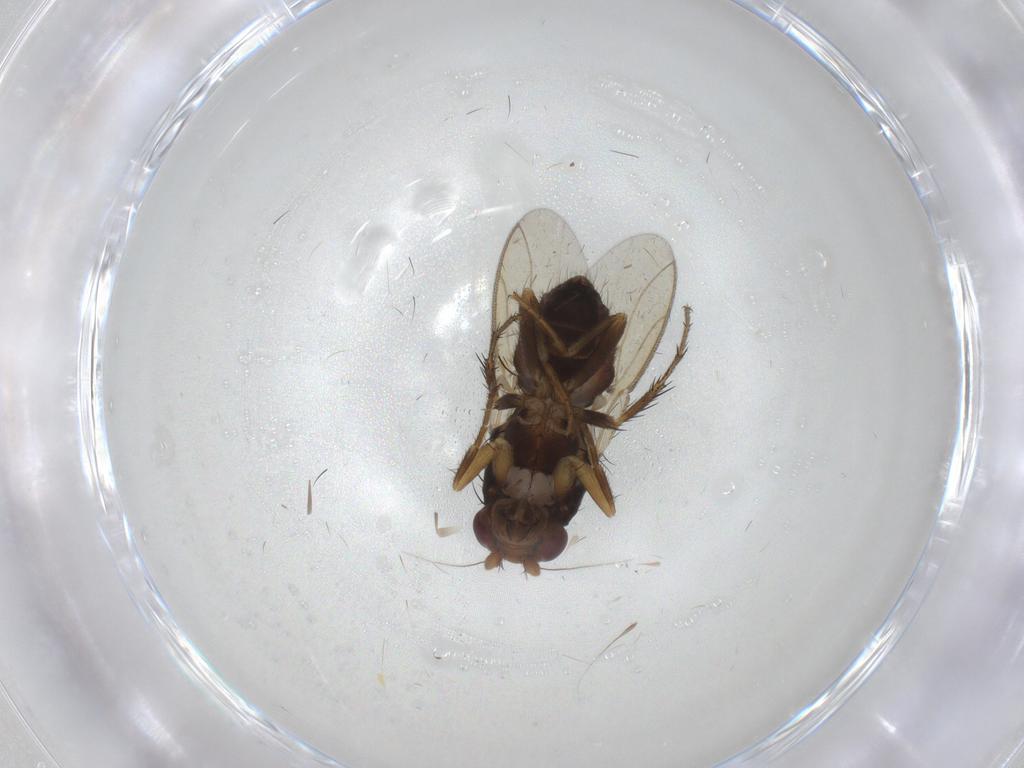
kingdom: Animalia
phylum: Arthropoda
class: Insecta
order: Diptera
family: Sphaeroceridae
